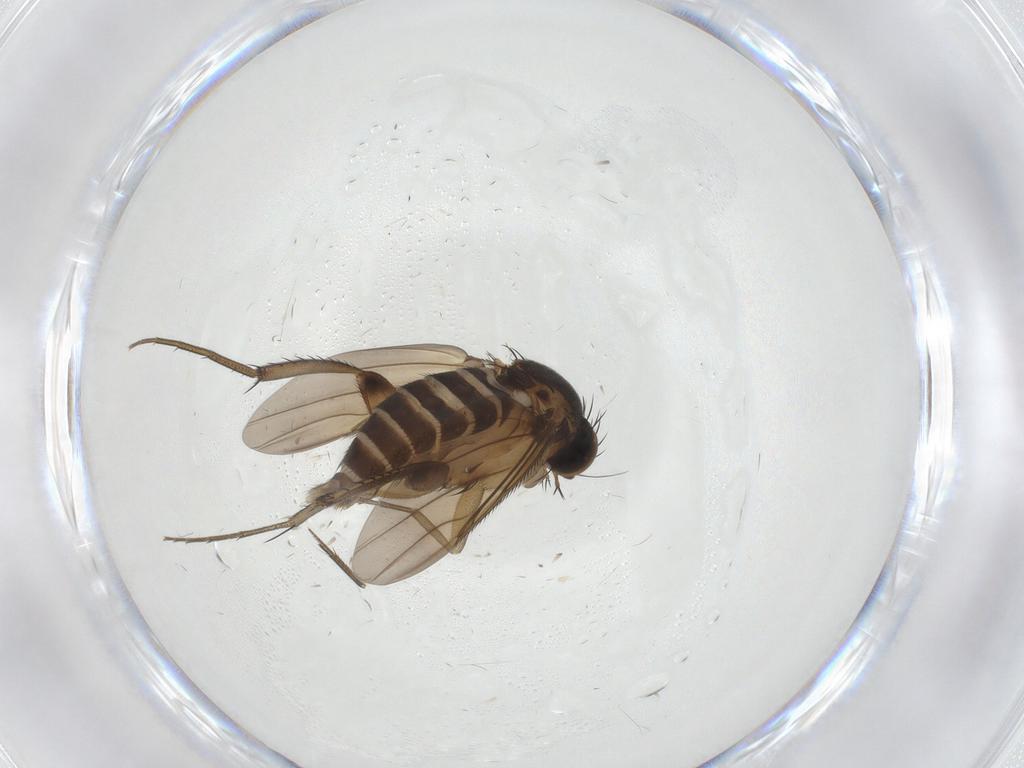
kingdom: Animalia
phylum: Arthropoda
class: Insecta
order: Diptera
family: Phoridae
